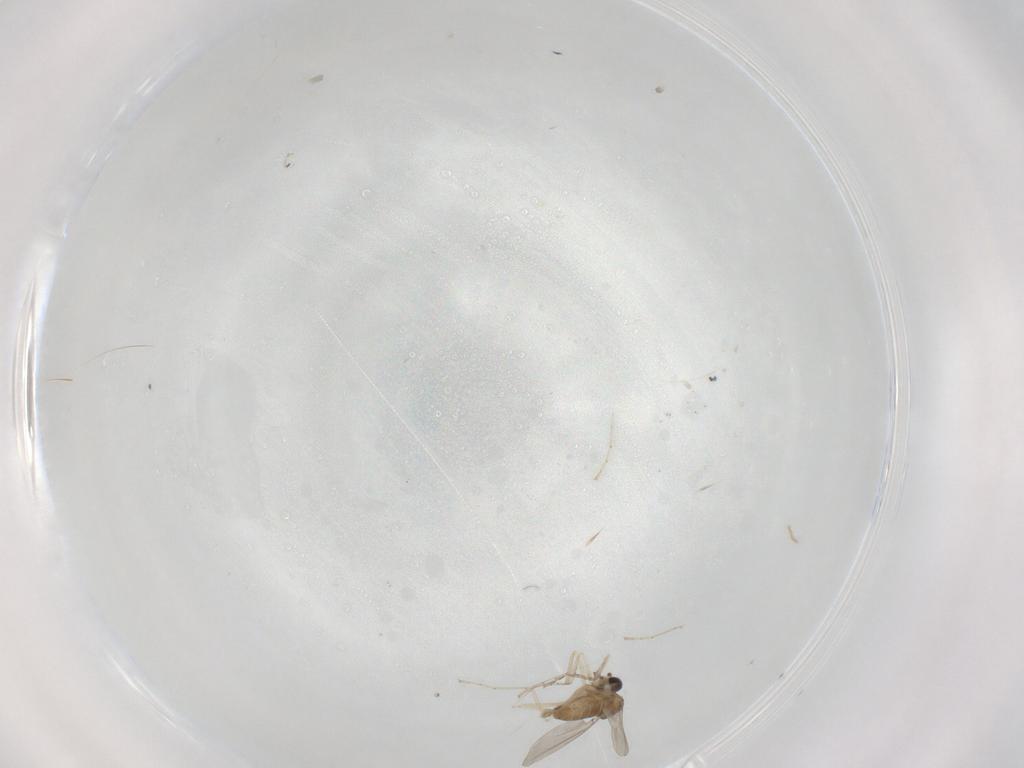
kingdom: Animalia
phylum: Arthropoda
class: Insecta
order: Diptera
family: Cecidomyiidae
